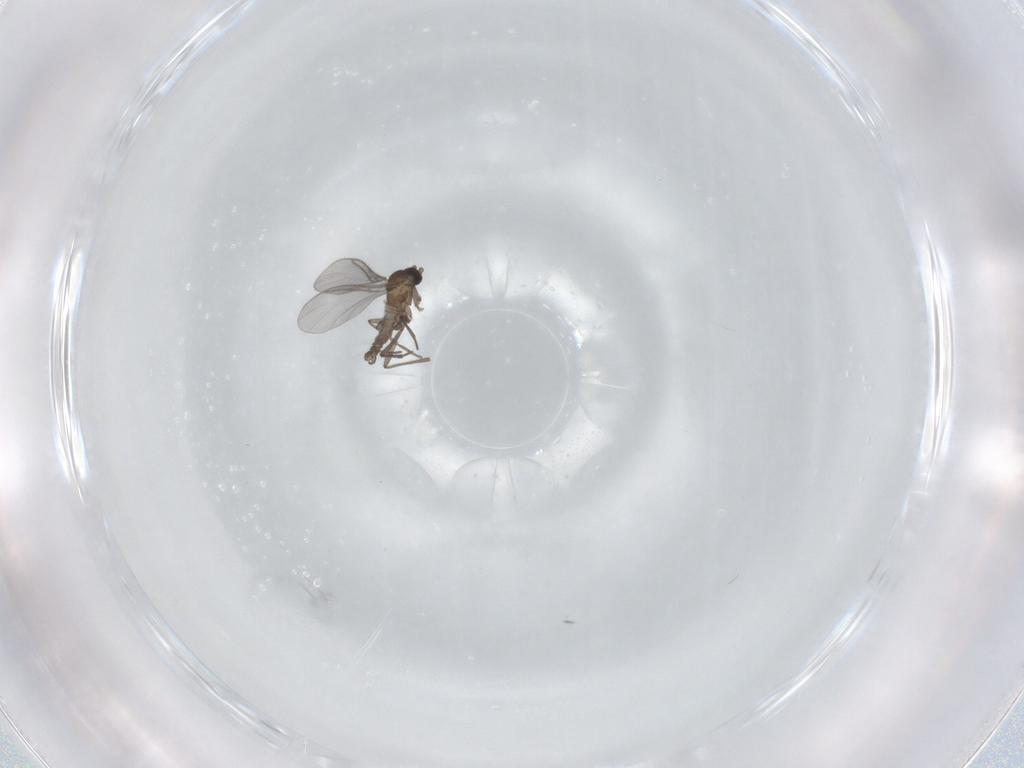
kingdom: Animalia
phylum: Arthropoda
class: Insecta
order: Diptera
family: Sciaridae
